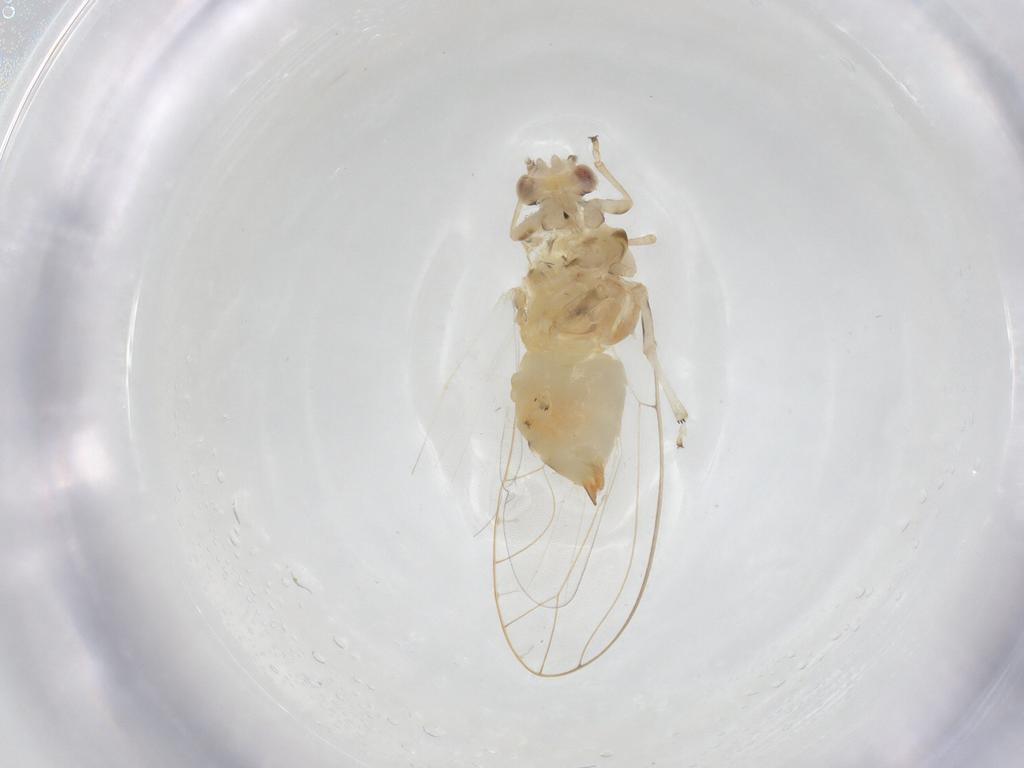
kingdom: Animalia
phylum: Arthropoda
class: Insecta
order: Hemiptera
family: Triozidae
